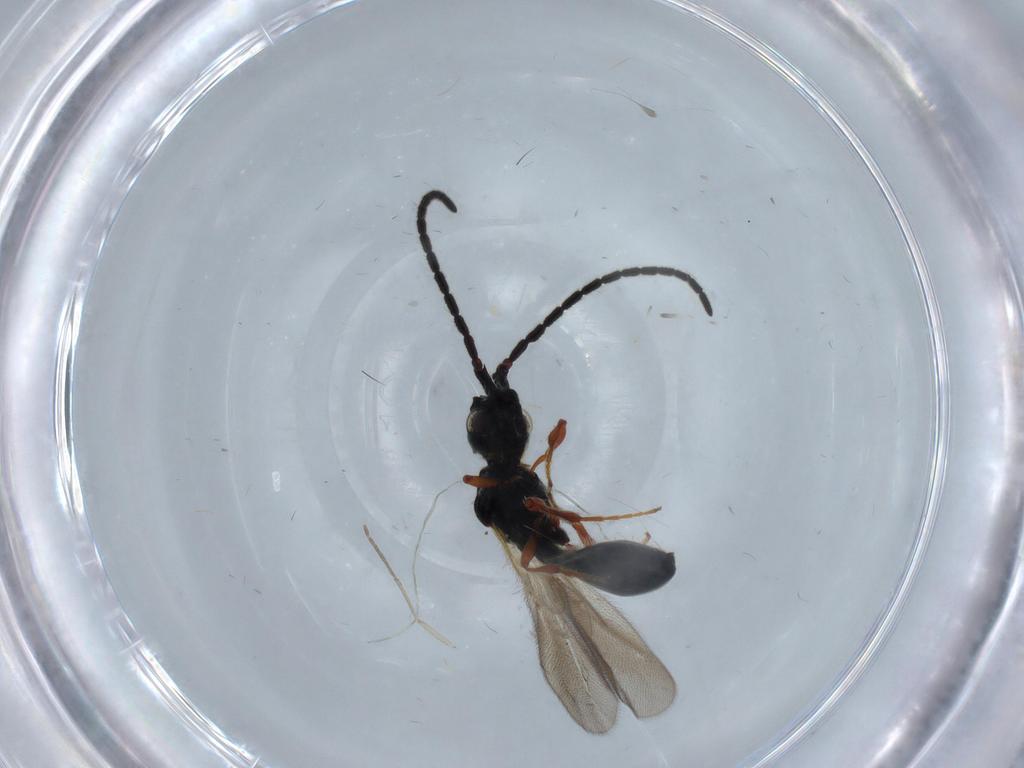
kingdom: Animalia
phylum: Arthropoda
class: Insecta
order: Hymenoptera
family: Formicidae
